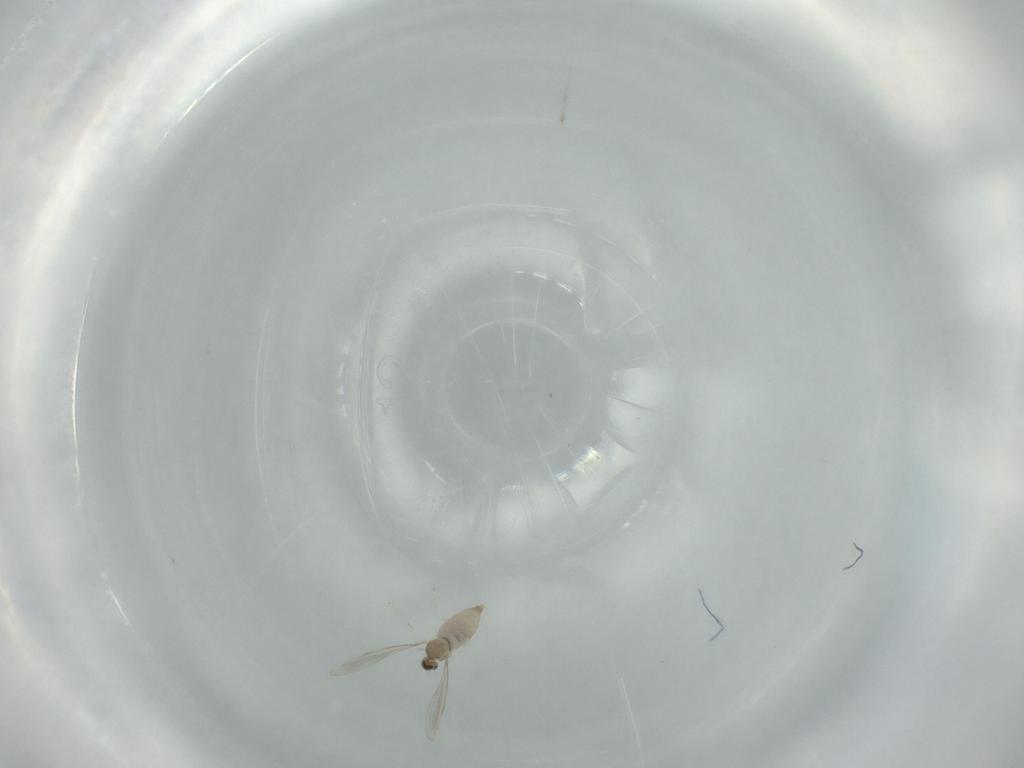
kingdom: Animalia
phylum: Arthropoda
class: Insecta
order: Diptera
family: Cecidomyiidae
